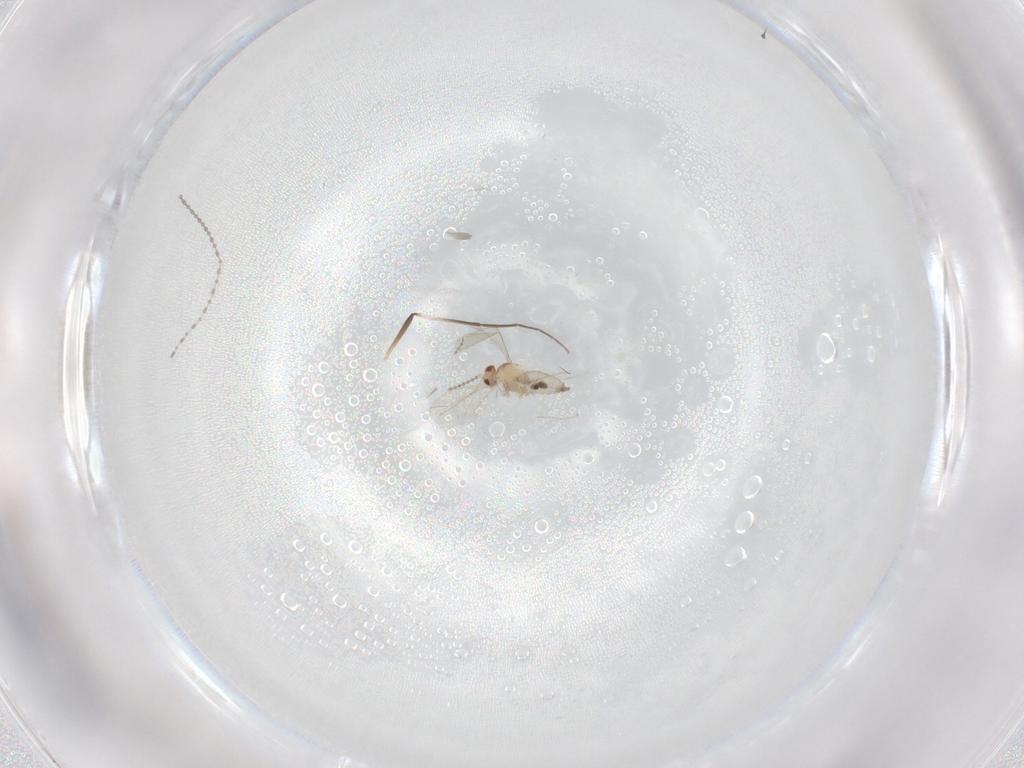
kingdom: Animalia
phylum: Arthropoda
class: Insecta
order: Diptera
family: Cecidomyiidae
